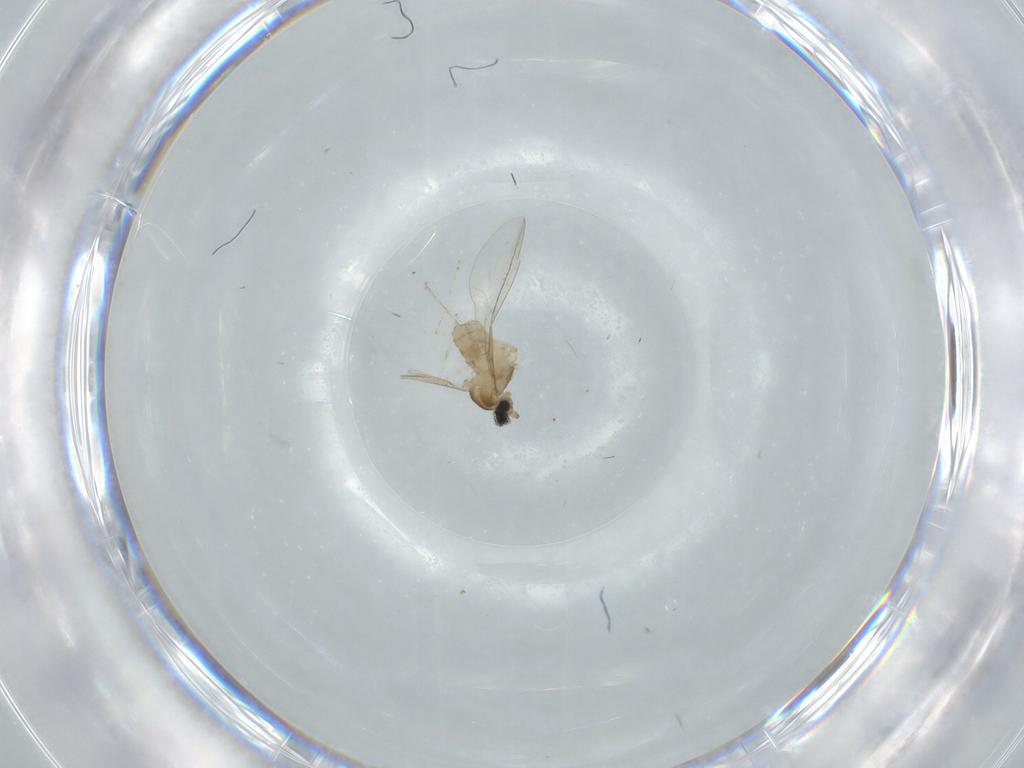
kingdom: Animalia
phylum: Arthropoda
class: Insecta
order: Diptera
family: Cecidomyiidae
